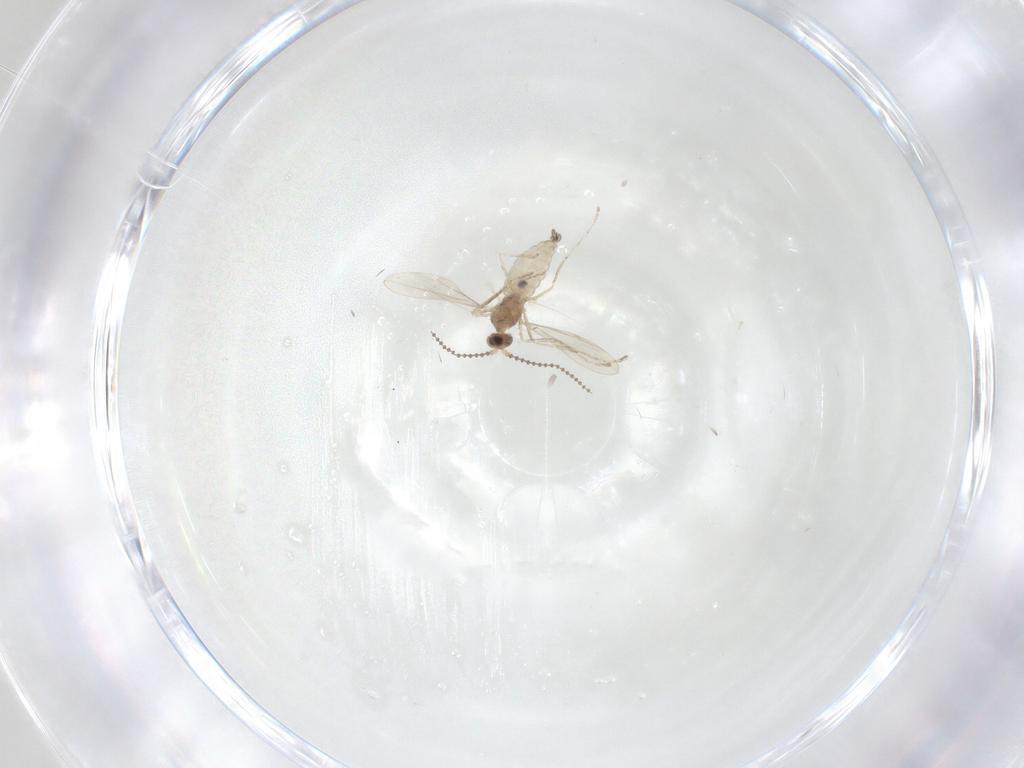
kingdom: Animalia
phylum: Arthropoda
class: Insecta
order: Diptera
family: Cecidomyiidae
